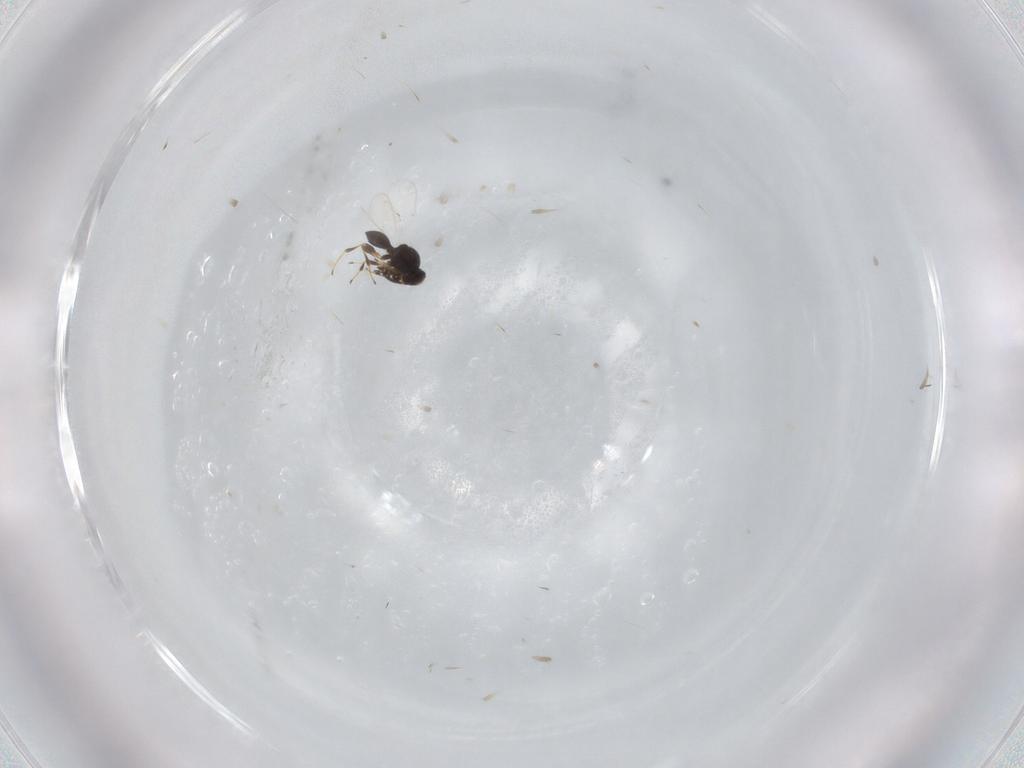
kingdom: Animalia
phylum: Arthropoda
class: Insecta
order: Hymenoptera
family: Platygastridae
